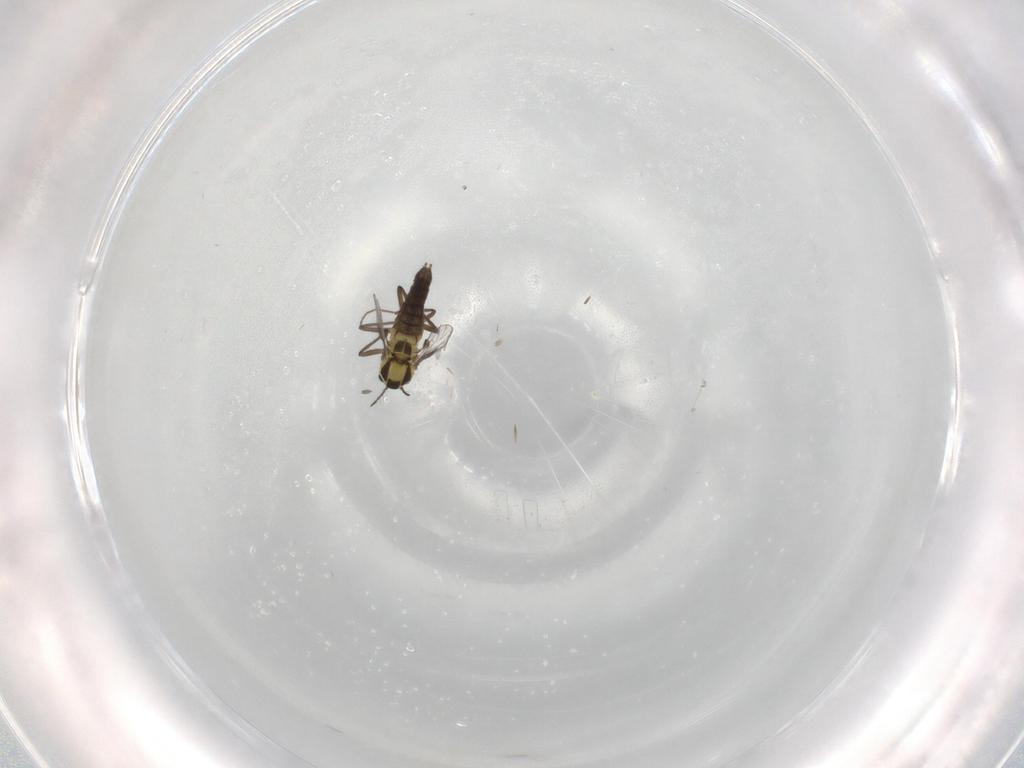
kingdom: Animalia
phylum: Arthropoda
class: Insecta
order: Diptera
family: Chironomidae
